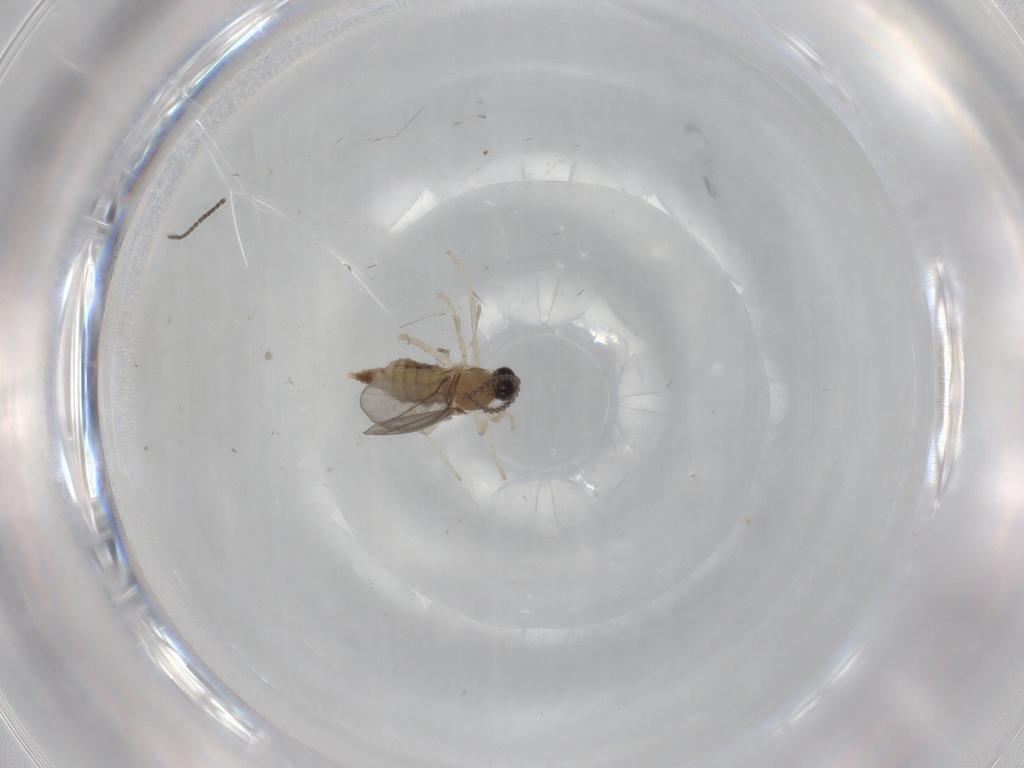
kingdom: Animalia
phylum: Arthropoda
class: Insecta
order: Diptera
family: Cecidomyiidae
